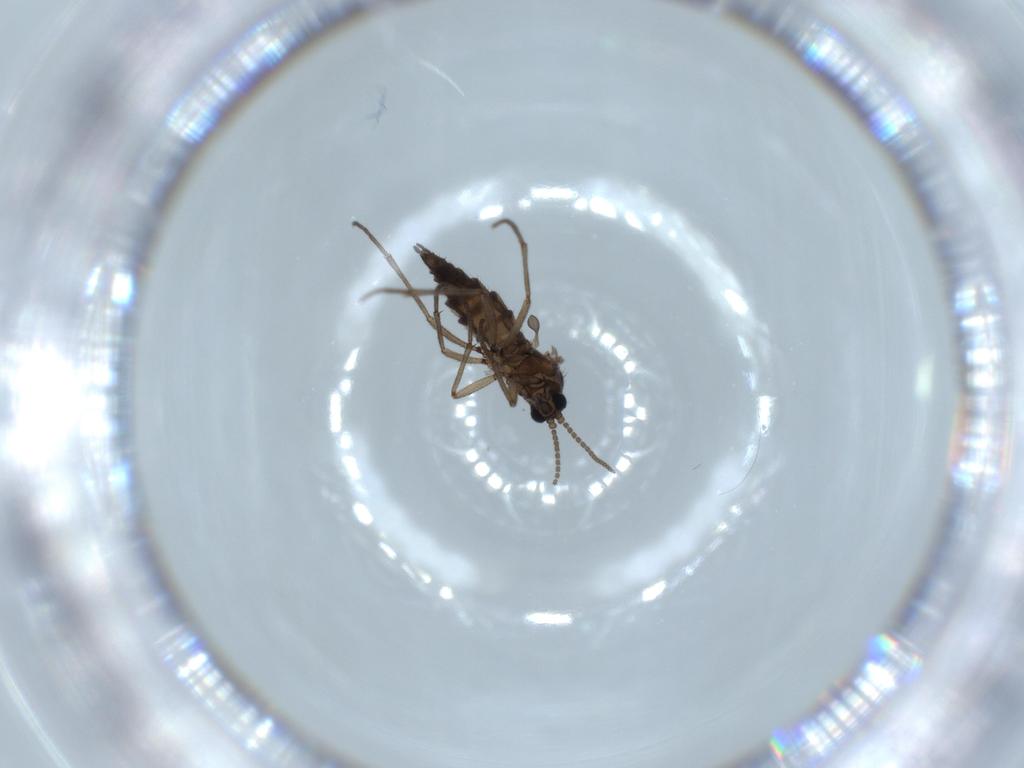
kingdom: Animalia
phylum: Arthropoda
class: Insecta
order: Diptera
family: Sciaridae
